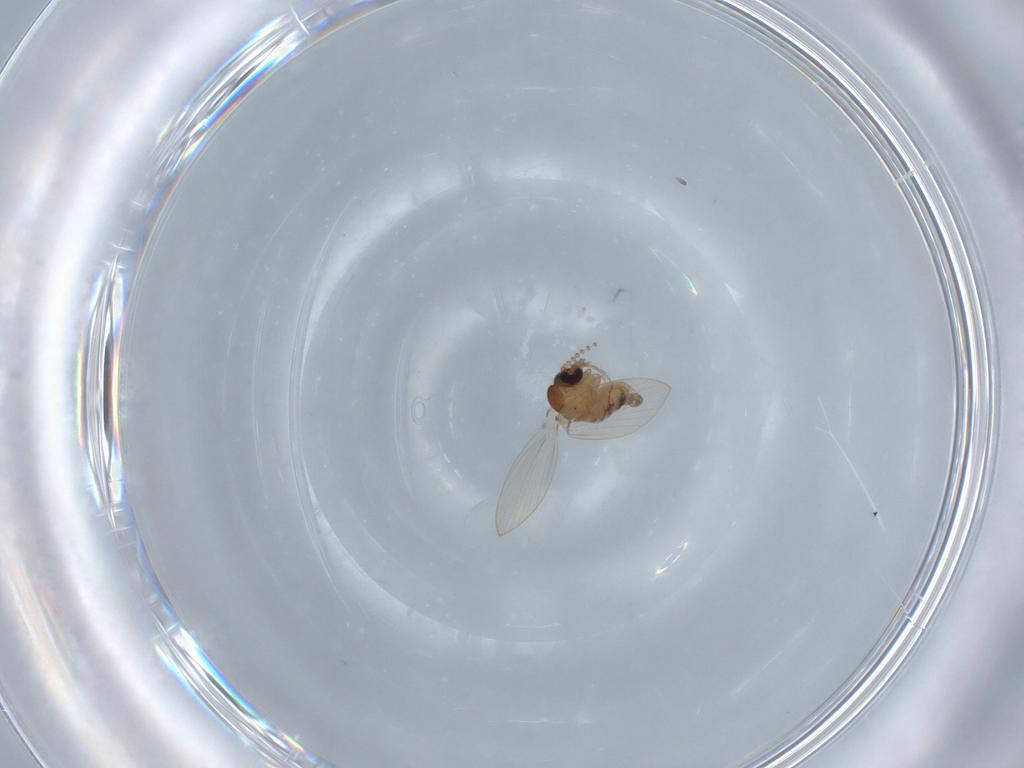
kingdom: Animalia
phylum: Arthropoda
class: Insecta
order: Diptera
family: Psychodidae
